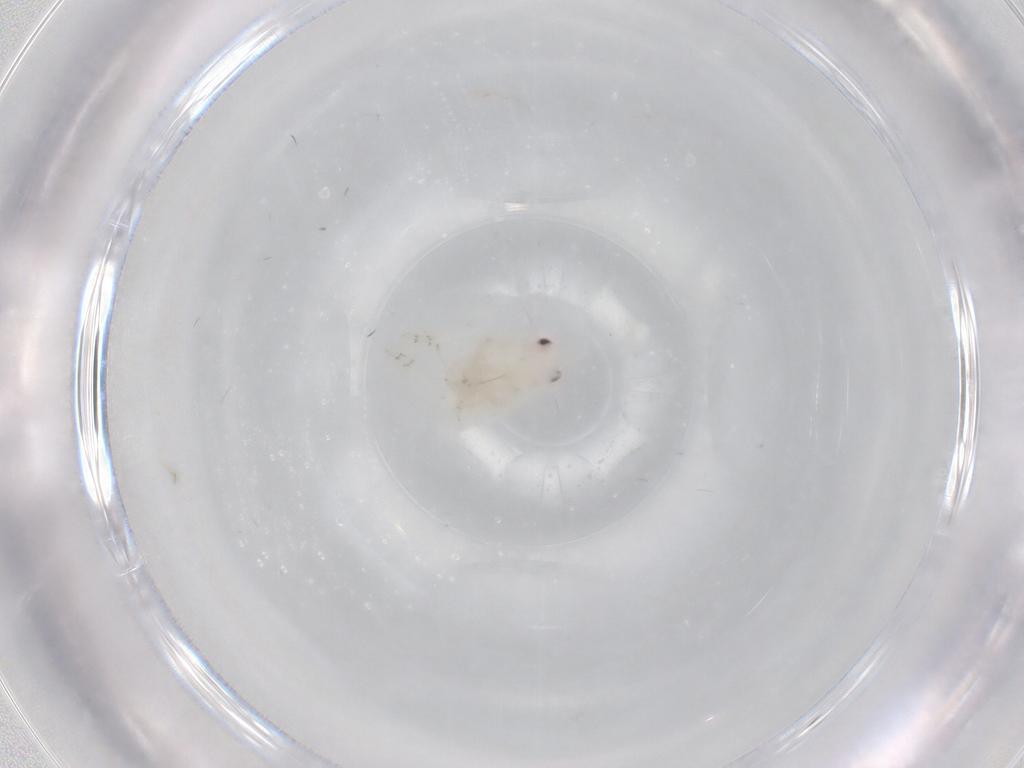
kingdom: Animalia
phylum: Arthropoda
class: Insecta
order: Hemiptera
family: Flatidae
